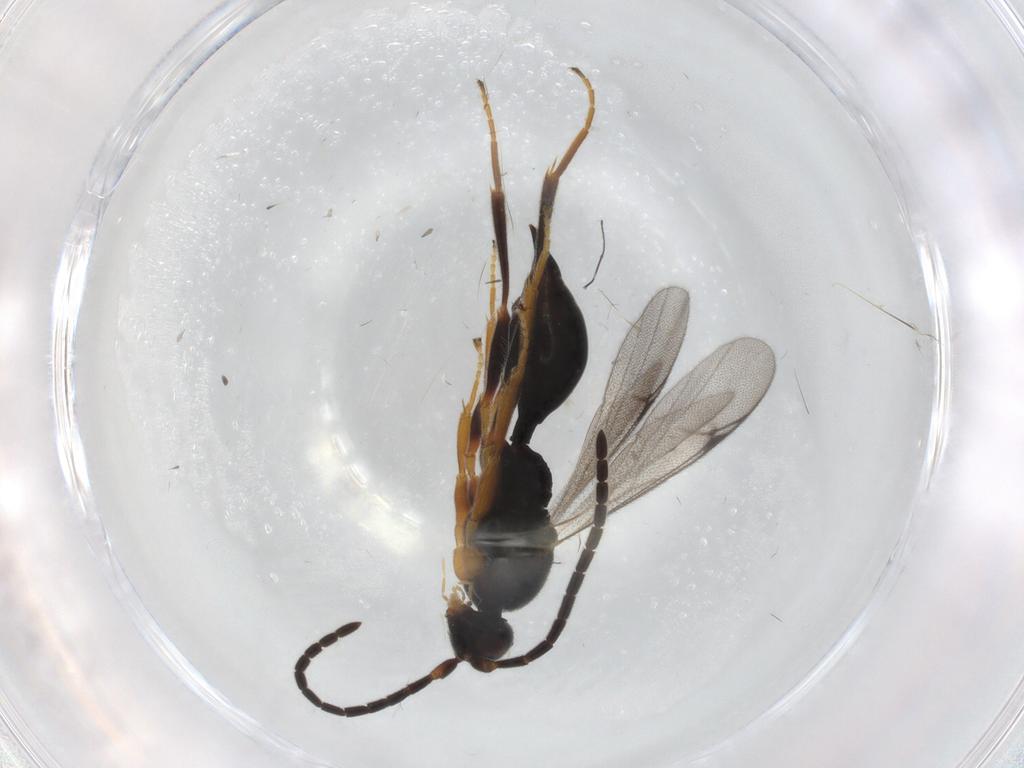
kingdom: Animalia
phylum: Arthropoda
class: Insecta
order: Hymenoptera
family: Proctotrupidae
